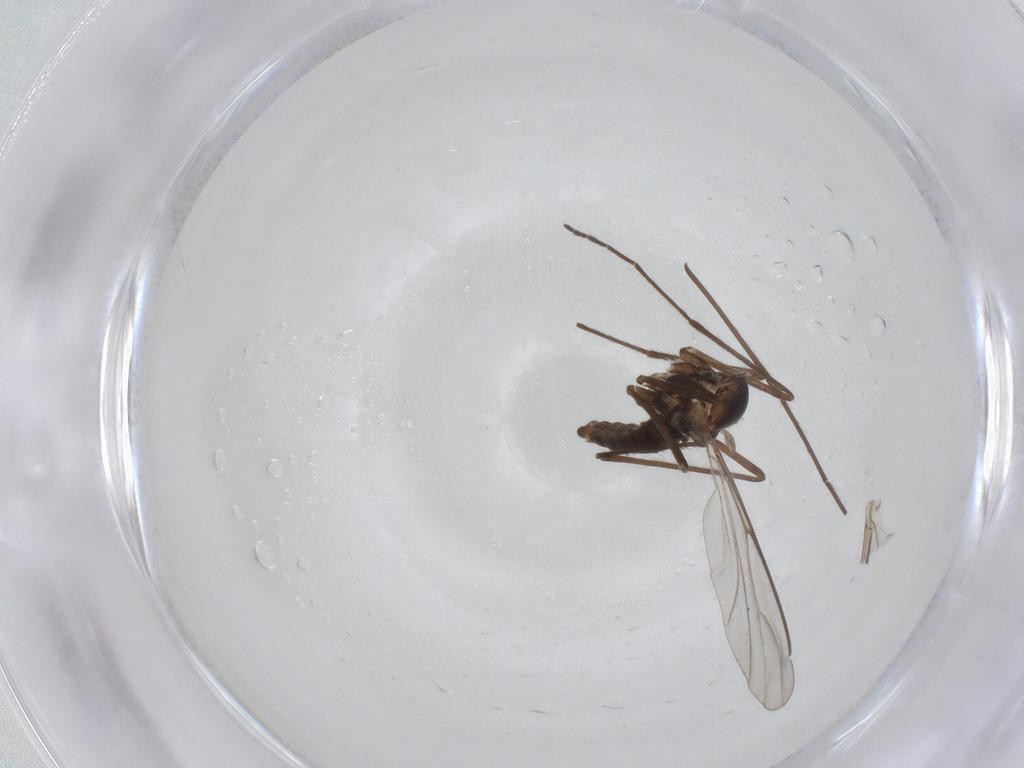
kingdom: Animalia
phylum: Arthropoda
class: Insecta
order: Diptera
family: Cecidomyiidae
